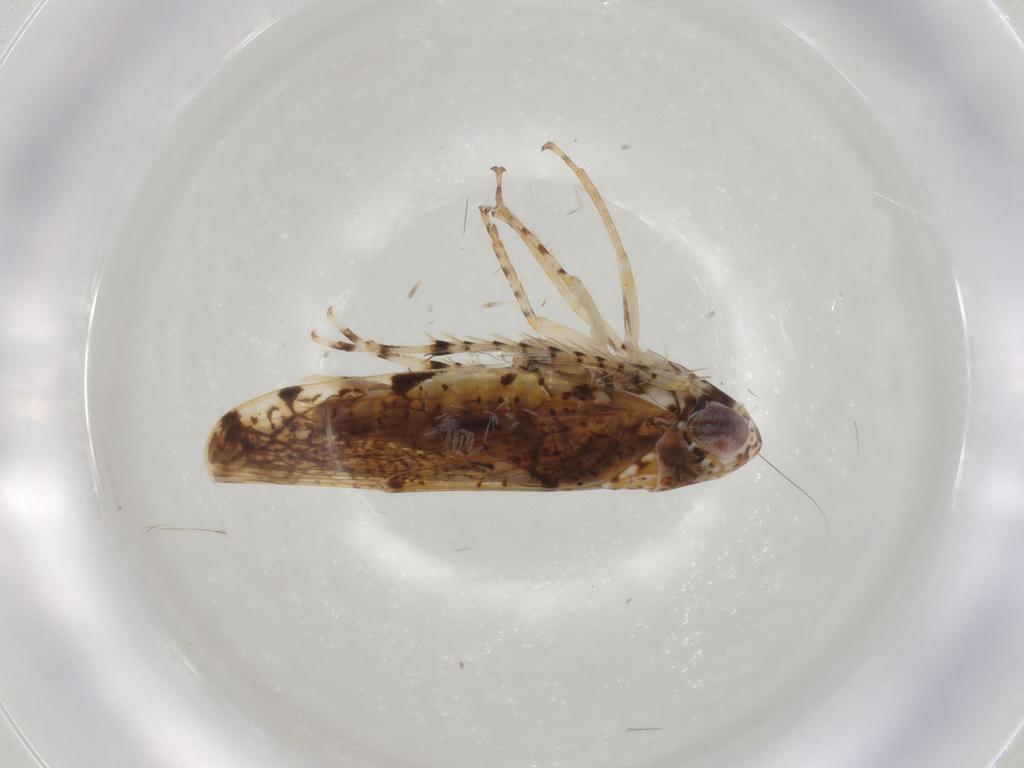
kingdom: Animalia
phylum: Arthropoda
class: Insecta
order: Hemiptera
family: Cicadellidae
